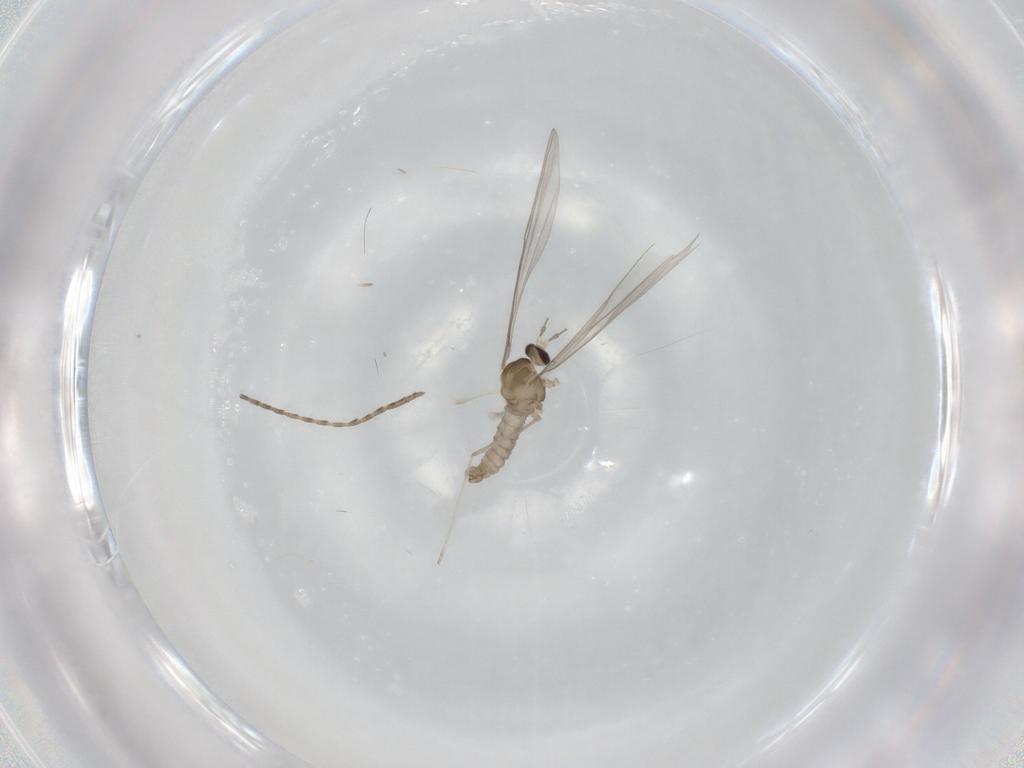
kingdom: Animalia
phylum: Arthropoda
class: Insecta
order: Diptera
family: Cecidomyiidae
